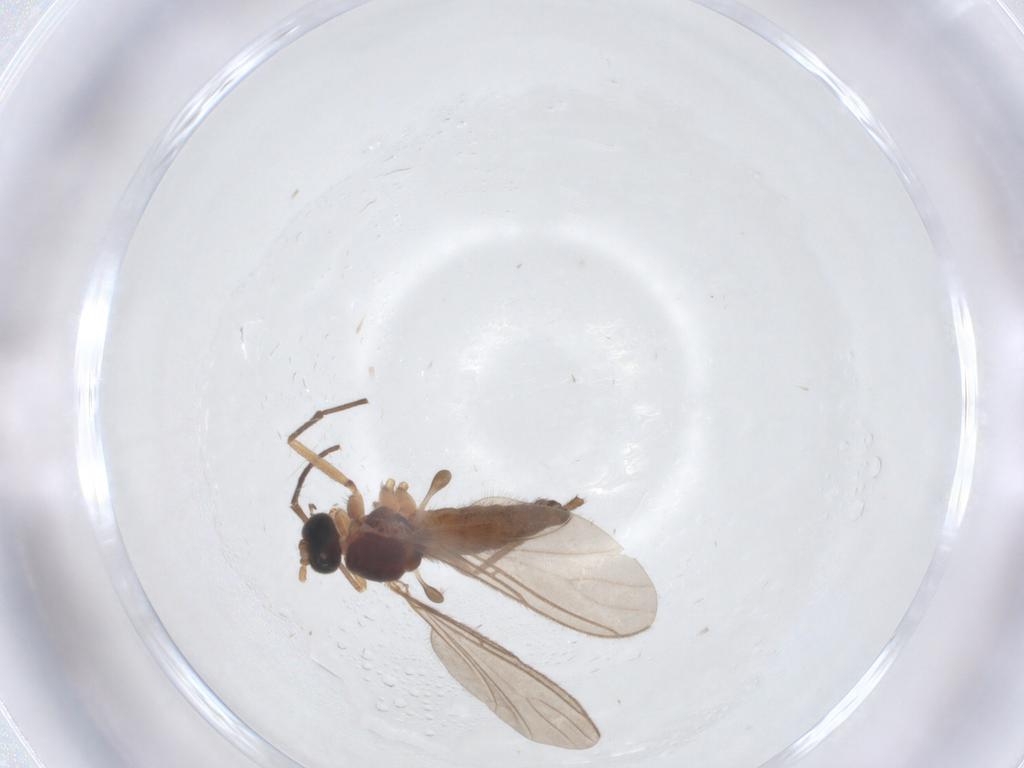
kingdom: Animalia
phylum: Arthropoda
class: Insecta
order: Diptera
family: Sciaridae
